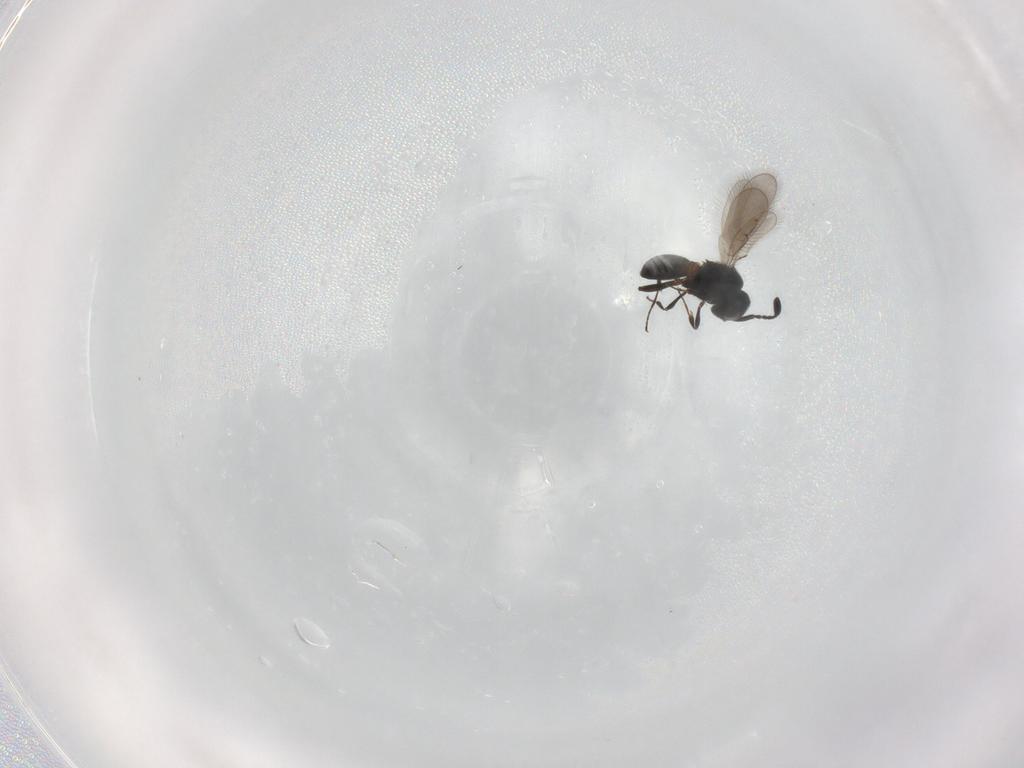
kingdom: Animalia
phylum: Arthropoda
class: Insecta
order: Hymenoptera
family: Scelionidae
